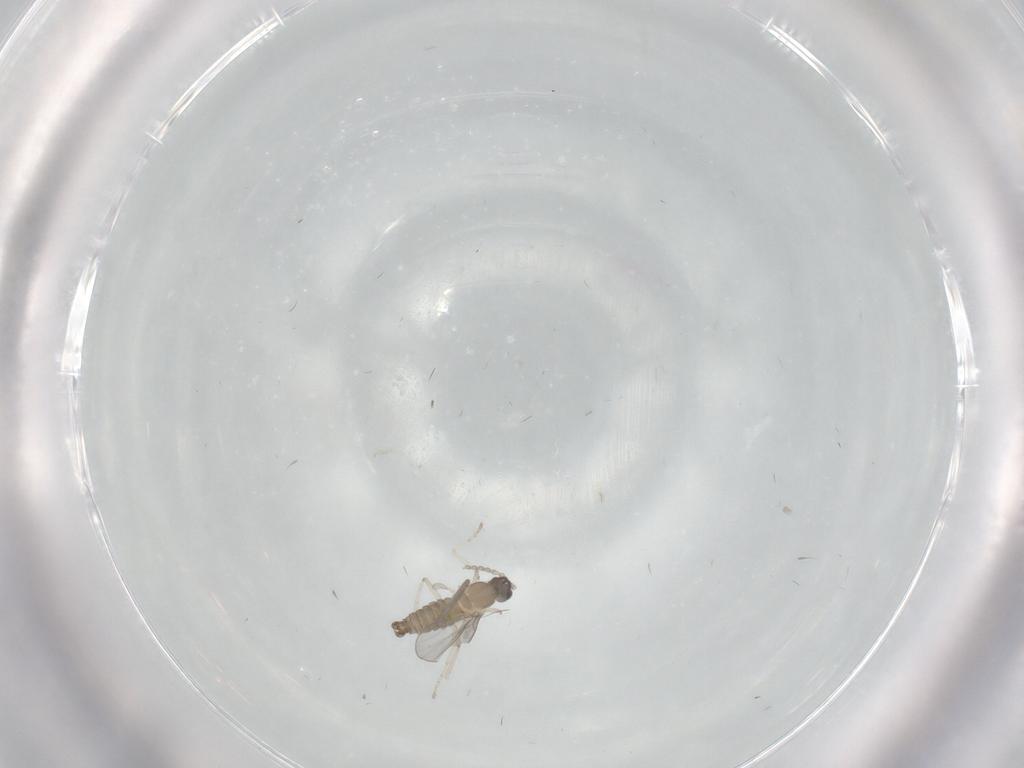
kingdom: Animalia
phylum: Arthropoda
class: Insecta
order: Diptera
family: Cecidomyiidae
